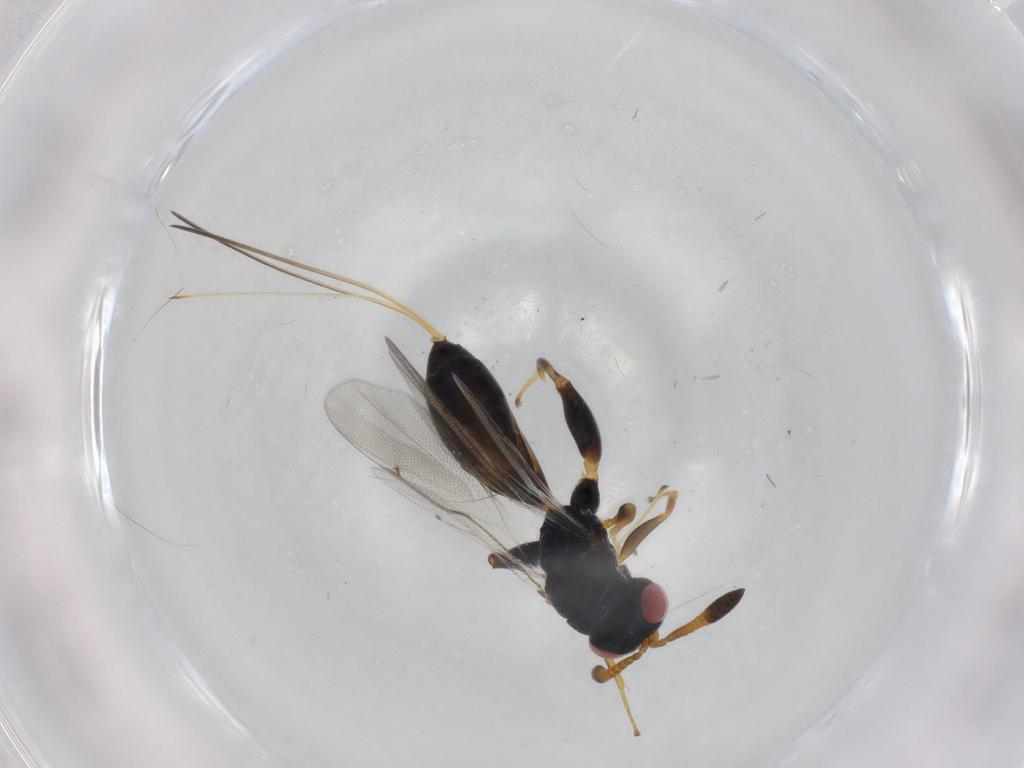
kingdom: Animalia
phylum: Arthropoda
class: Insecta
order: Hymenoptera
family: Torymidae
